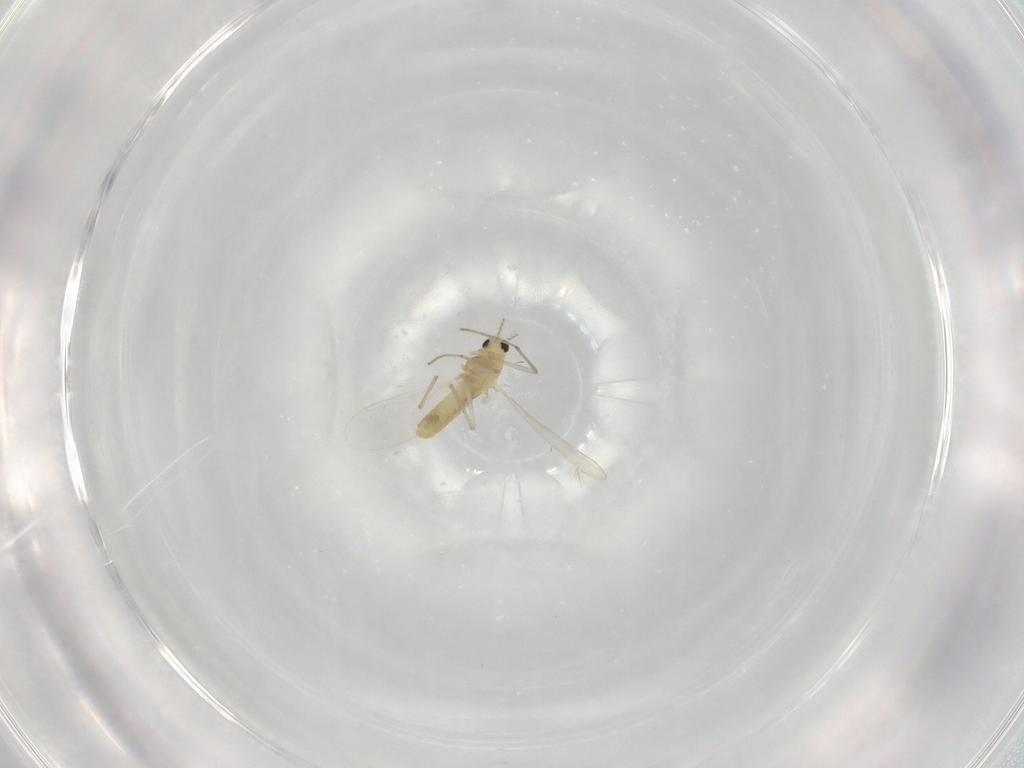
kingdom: Animalia
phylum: Arthropoda
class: Insecta
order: Diptera
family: Chironomidae
